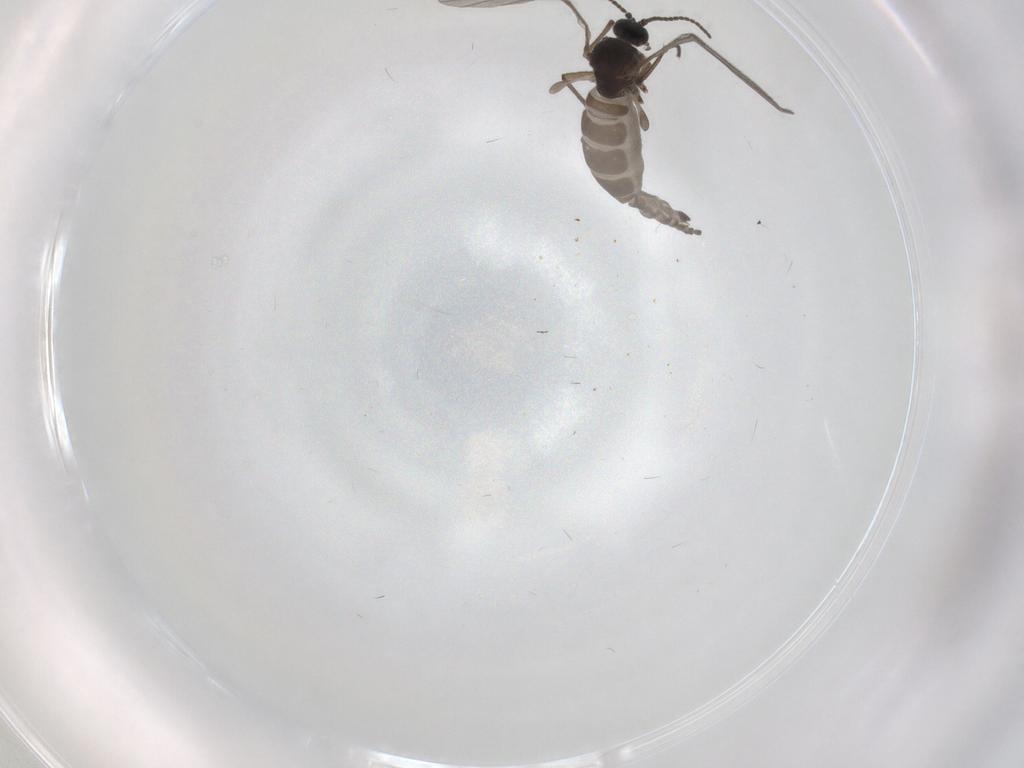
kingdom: Animalia
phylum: Arthropoda
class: Insecta
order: Diptera
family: Sciaridae
